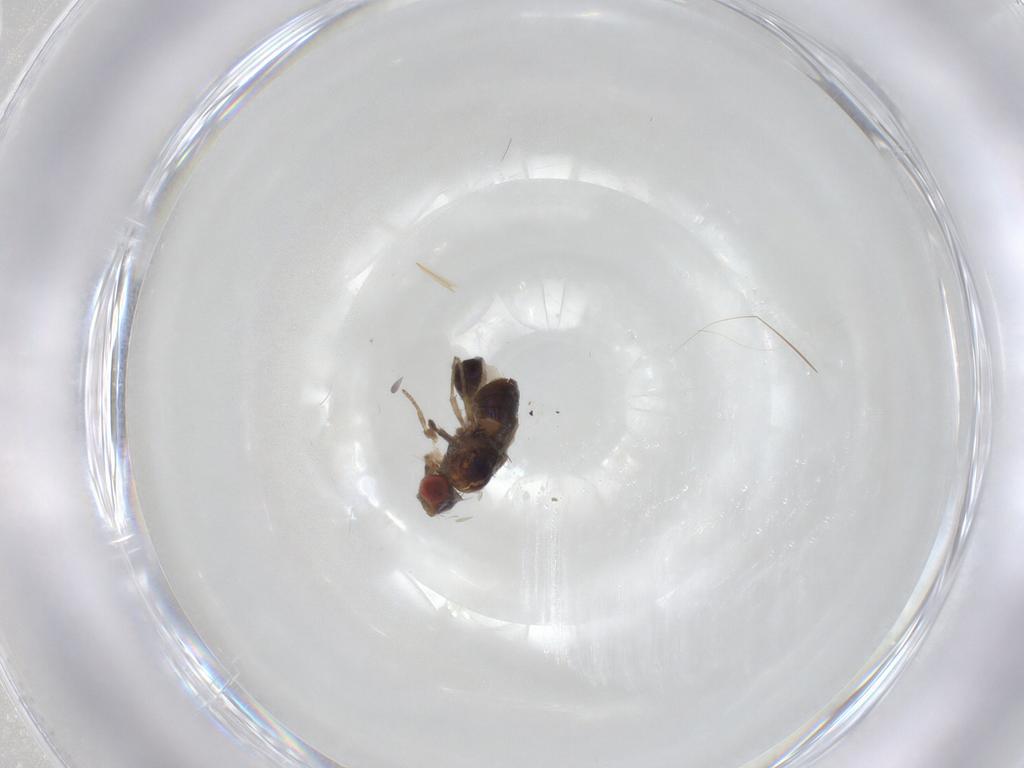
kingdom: Animalia
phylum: Arthropoda
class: Insecta
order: Diptera
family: Drosophilidae
